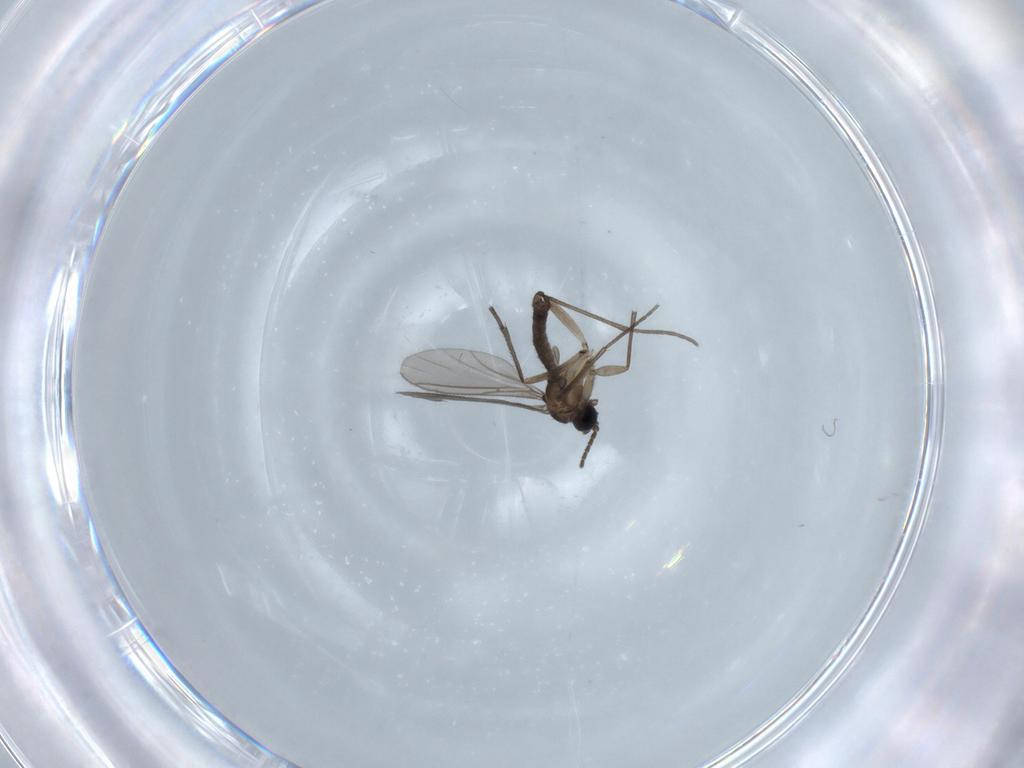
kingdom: Animalia
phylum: Arthropoda
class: Insecta
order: Diptera
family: Sciaridae
